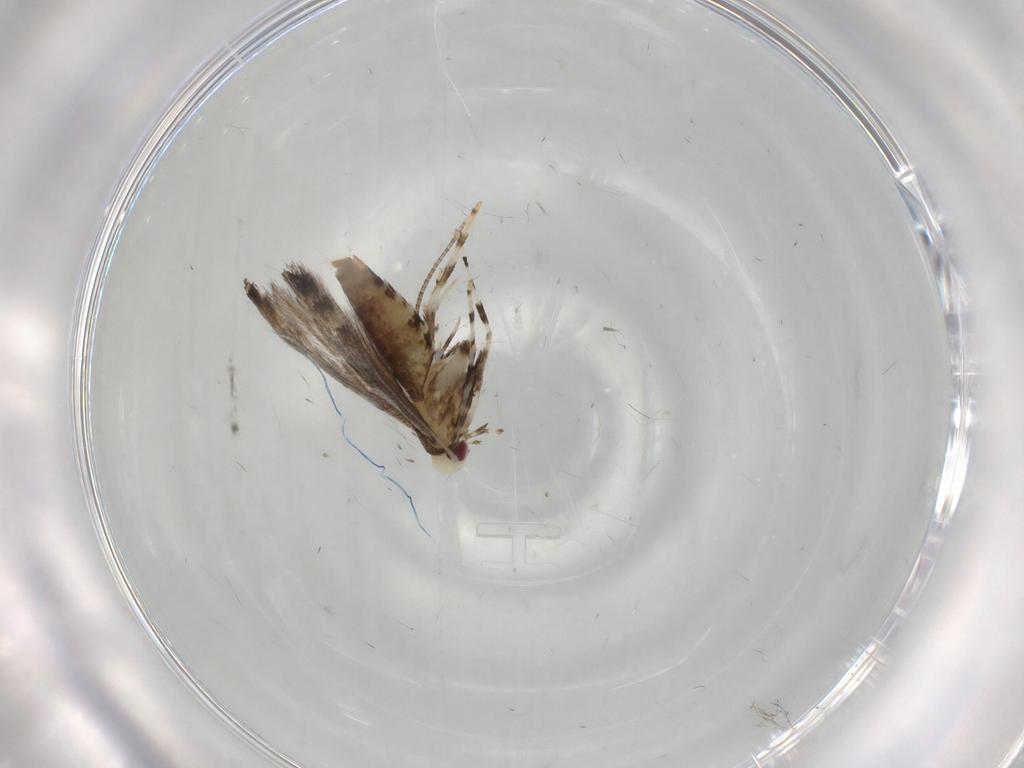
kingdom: Animalia
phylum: Arthropoda
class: Insecta
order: Lepidoptera
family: Gracillariidae
